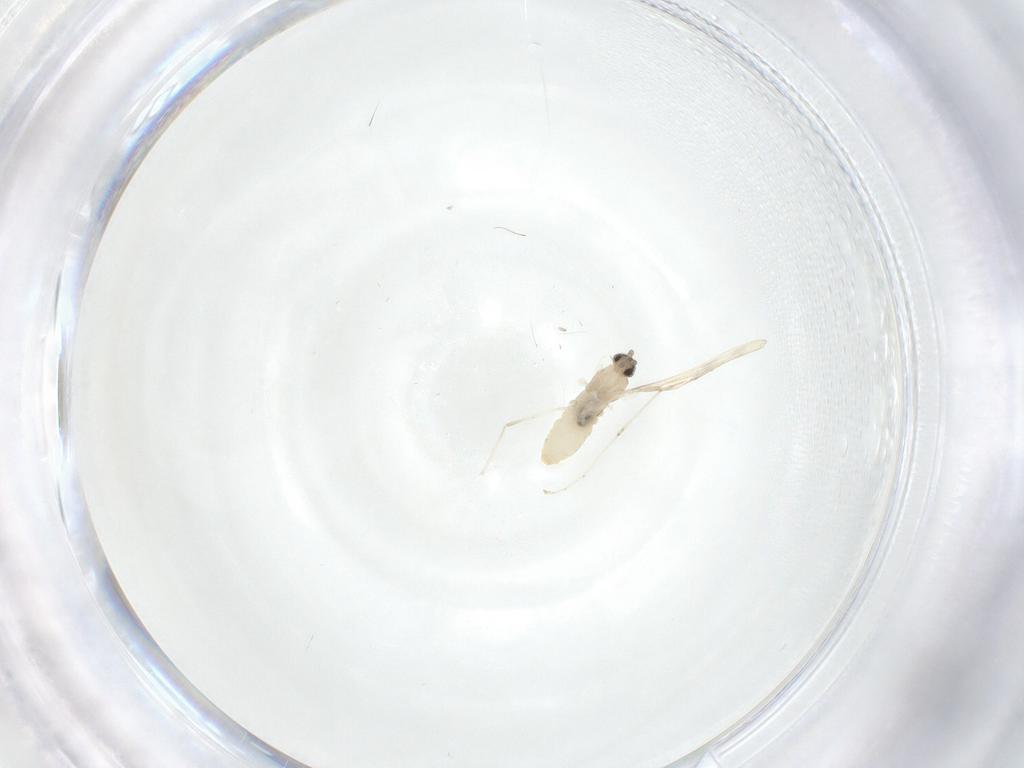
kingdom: Animalia
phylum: Arthropoda
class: Insecta
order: Diptera
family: Cecidomyiidae
